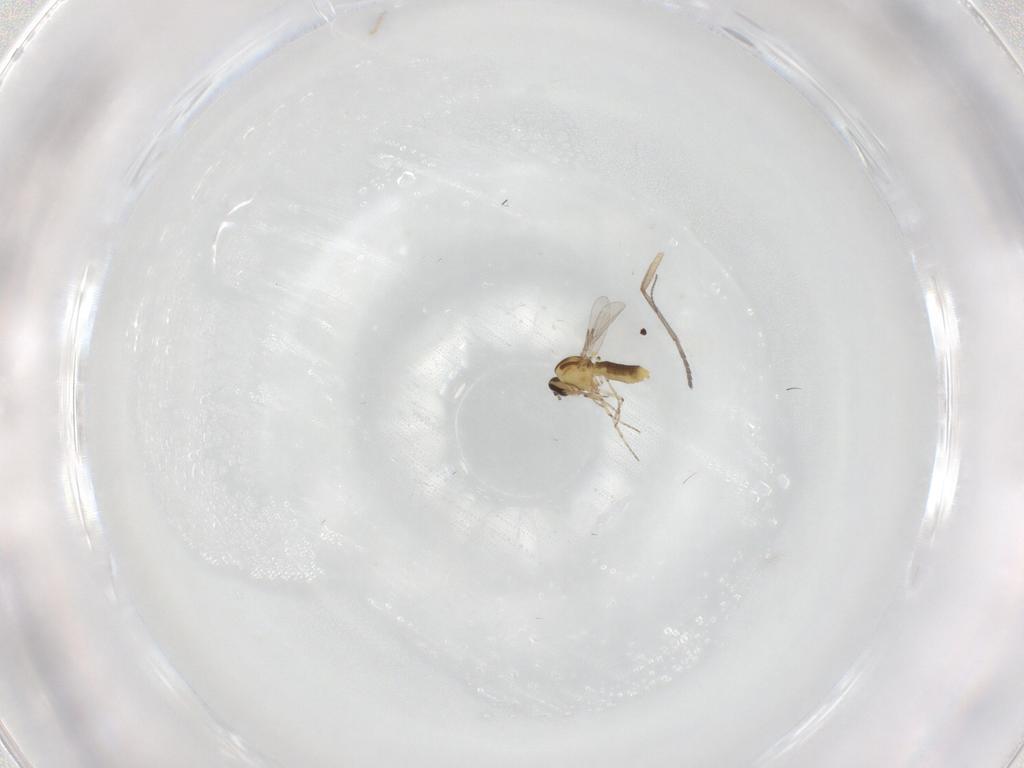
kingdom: Animalia
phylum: Arthropoda
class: Insecta
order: Diptera
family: Ceratopogonidae
